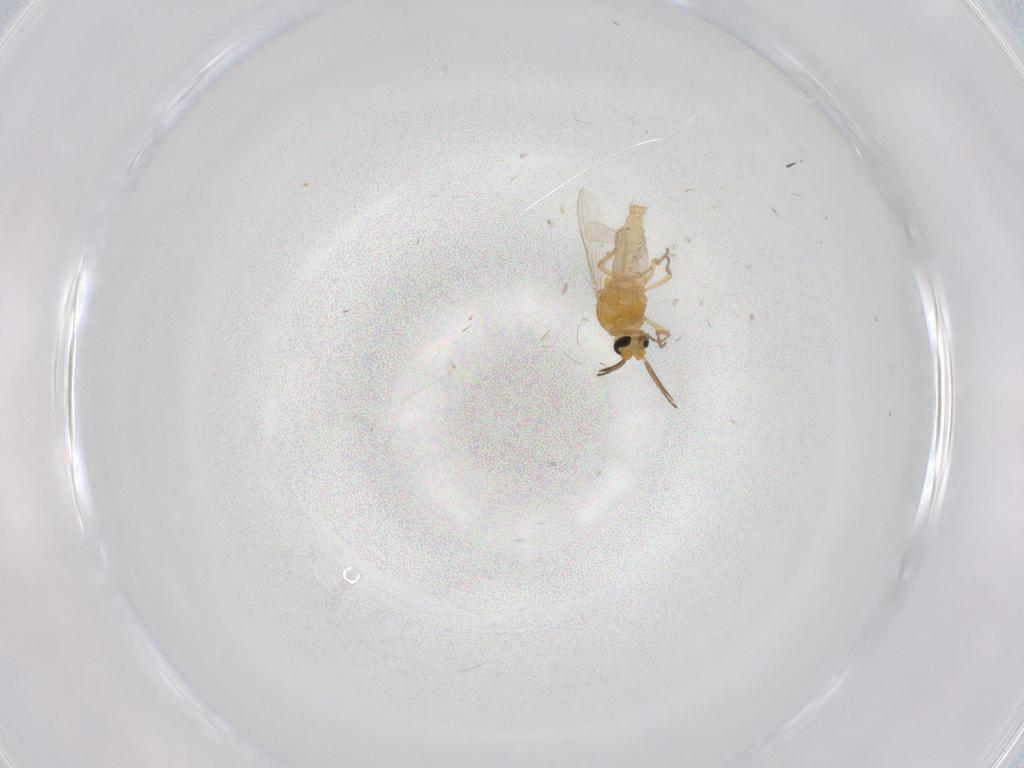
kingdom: Animalia
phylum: Arthropoda
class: Insecta
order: Diptera
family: Ceratopogonidae
